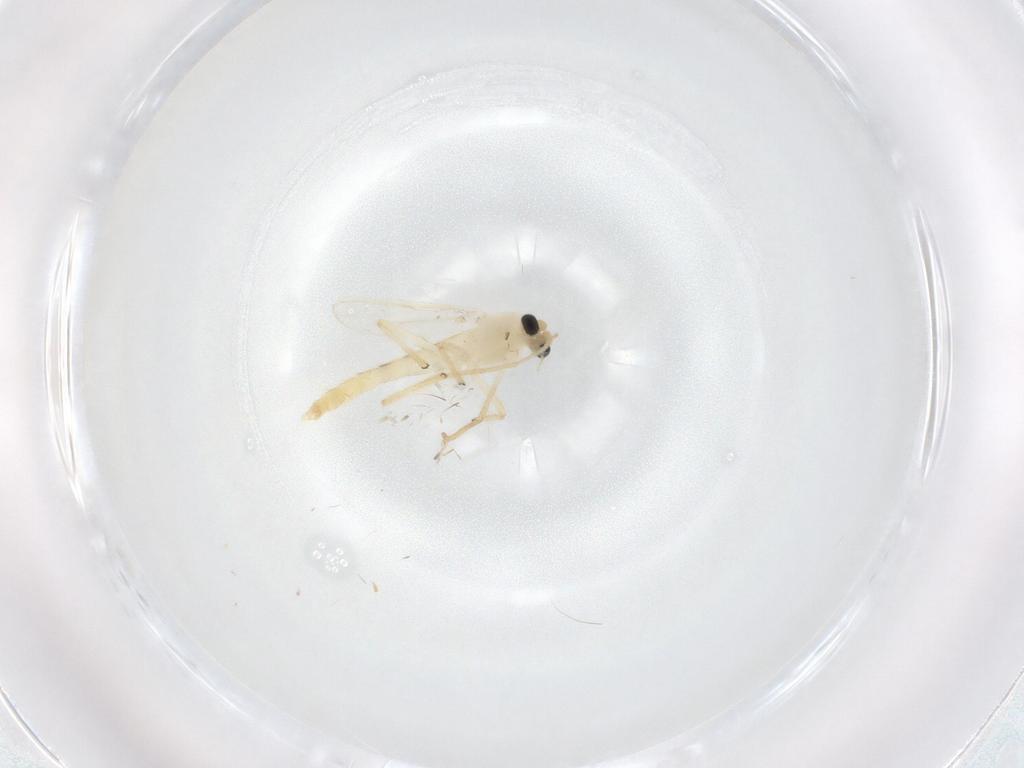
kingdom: Animalia
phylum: Arthropoda
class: Insecta
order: Diptera
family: Chironomidae
